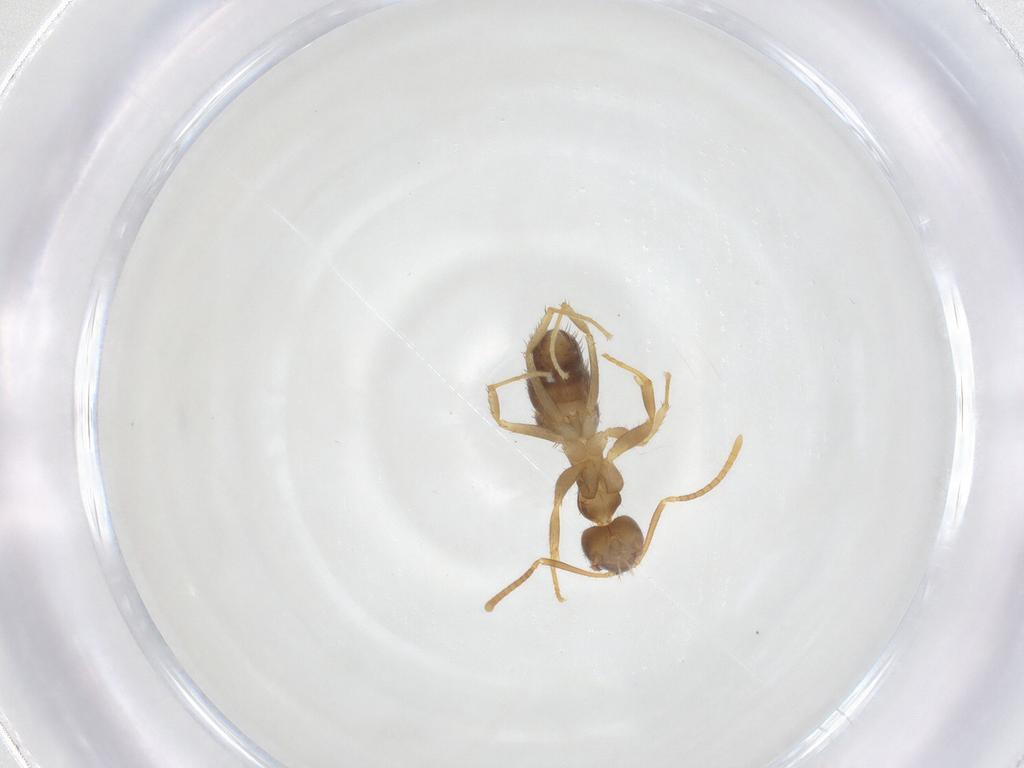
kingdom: Animalia
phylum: Arthropoda
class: Insecta
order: Hymenoptera
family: Formicidae
